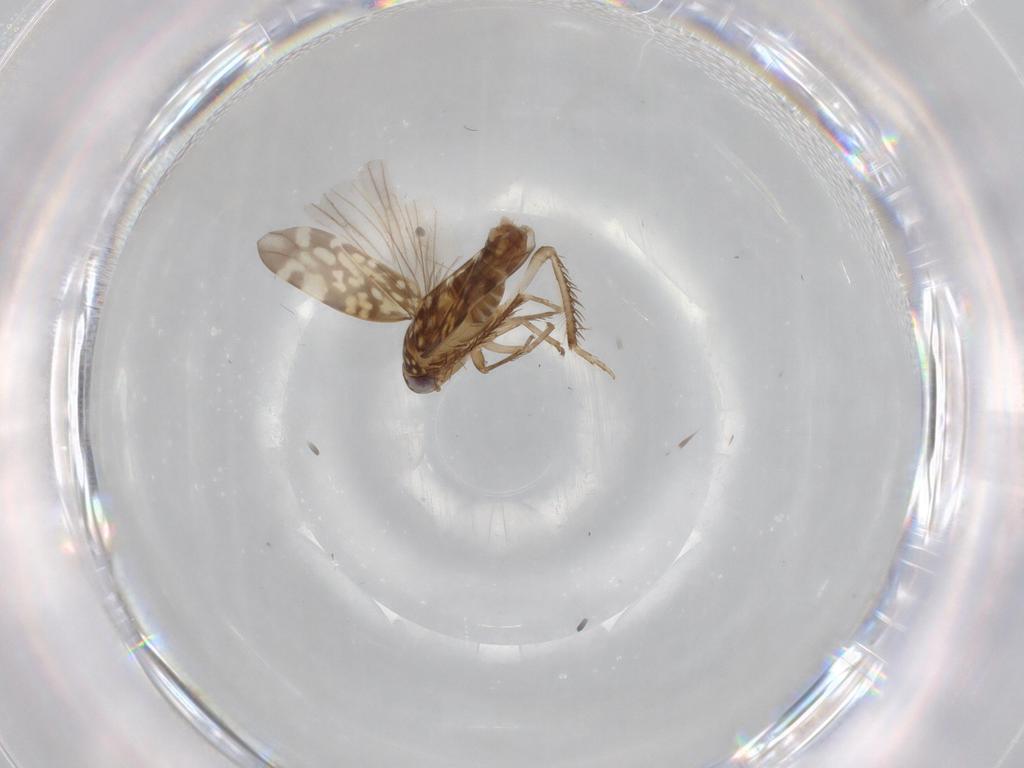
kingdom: Animalia
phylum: Arthropoda
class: Insecta
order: Hemiptera
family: Cicadellidae
